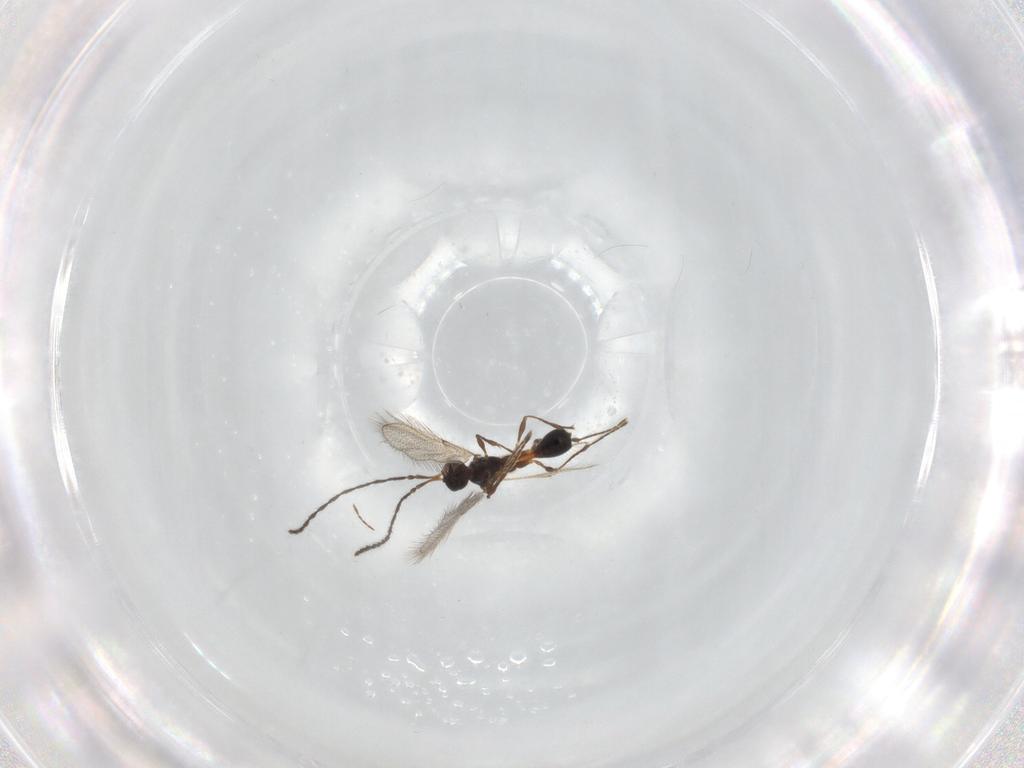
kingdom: Animalia
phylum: Arthropoda
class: Insecta
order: Hymenoptera
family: Diapriidae
